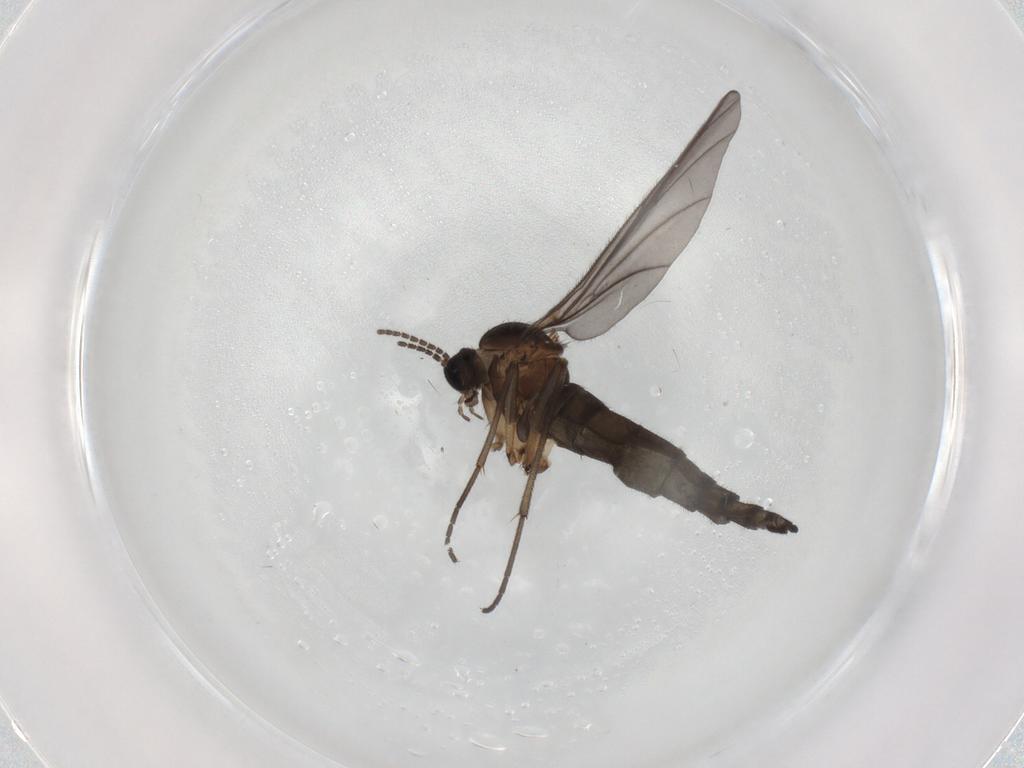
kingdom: Animalia
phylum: Arthropoda
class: Insecta
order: Diptera
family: Sciaridae
